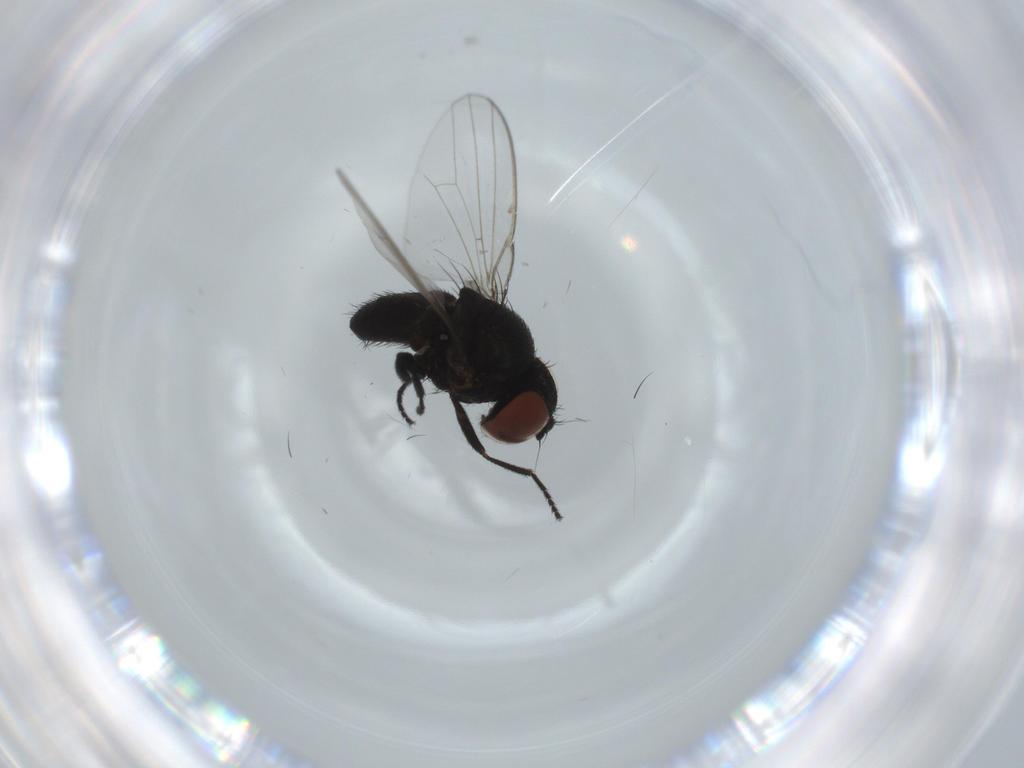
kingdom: Animalia
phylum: Arthropoda
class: Insecta
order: Diptera
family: Milichiidae
